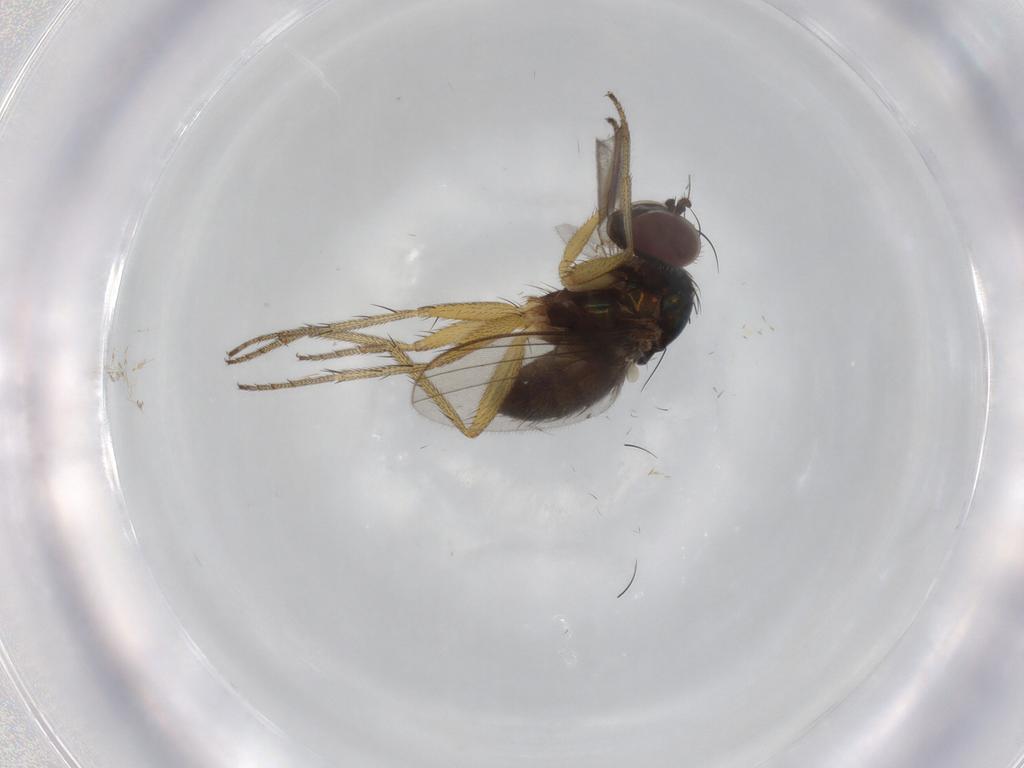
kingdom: Animalia
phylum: Arthropoda
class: Insecta
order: Diptera
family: Dolichopodidae
